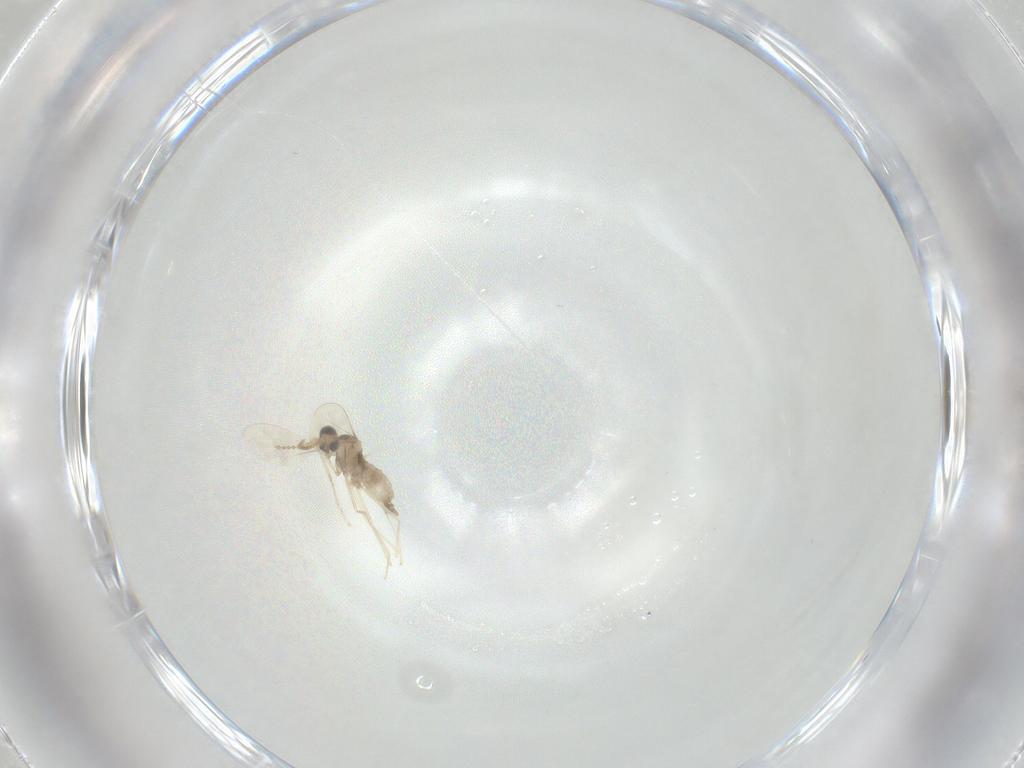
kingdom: Animalia
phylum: Arthropoda
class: Insecta
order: Diptera
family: Cecidomyiidae
